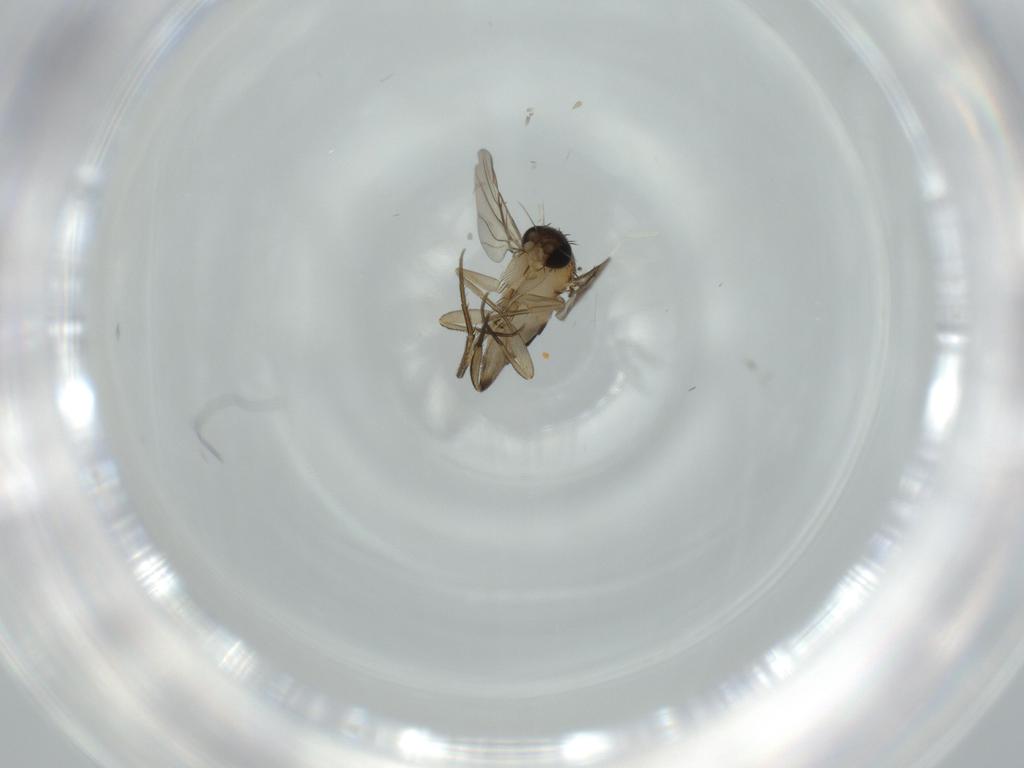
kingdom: Animalia
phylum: Arthropoda
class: Insecta
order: Diptera
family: Phoridae
